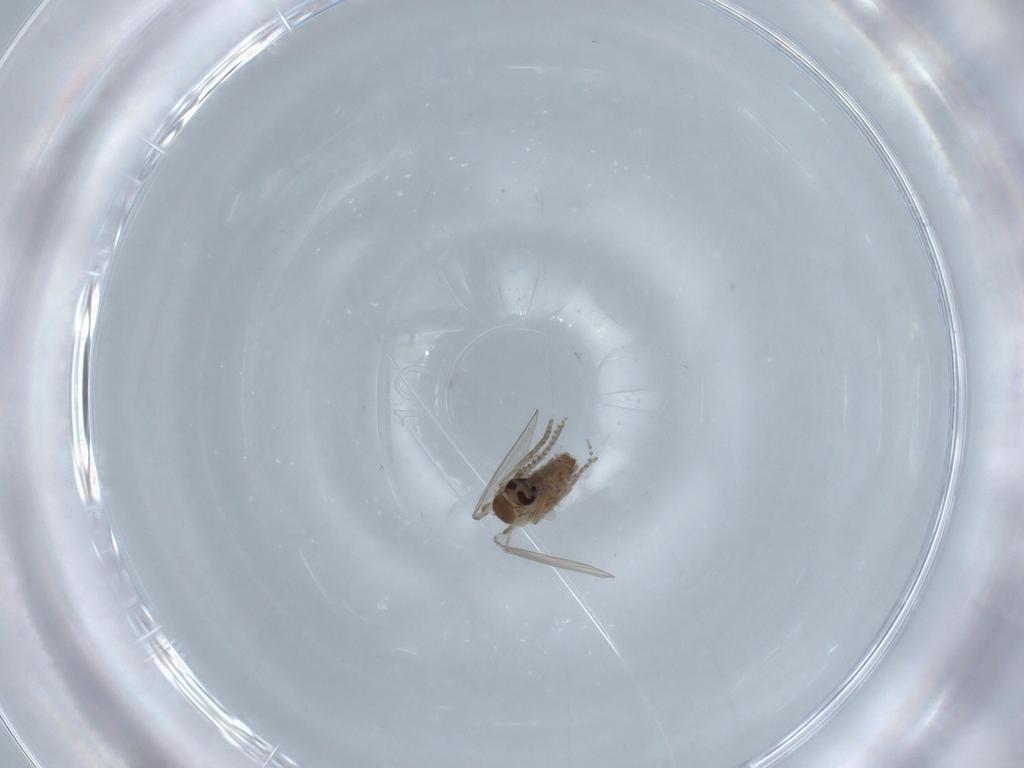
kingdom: Animalia
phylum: Arthropoda
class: Insecta
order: Diptera
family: Psychodidae
